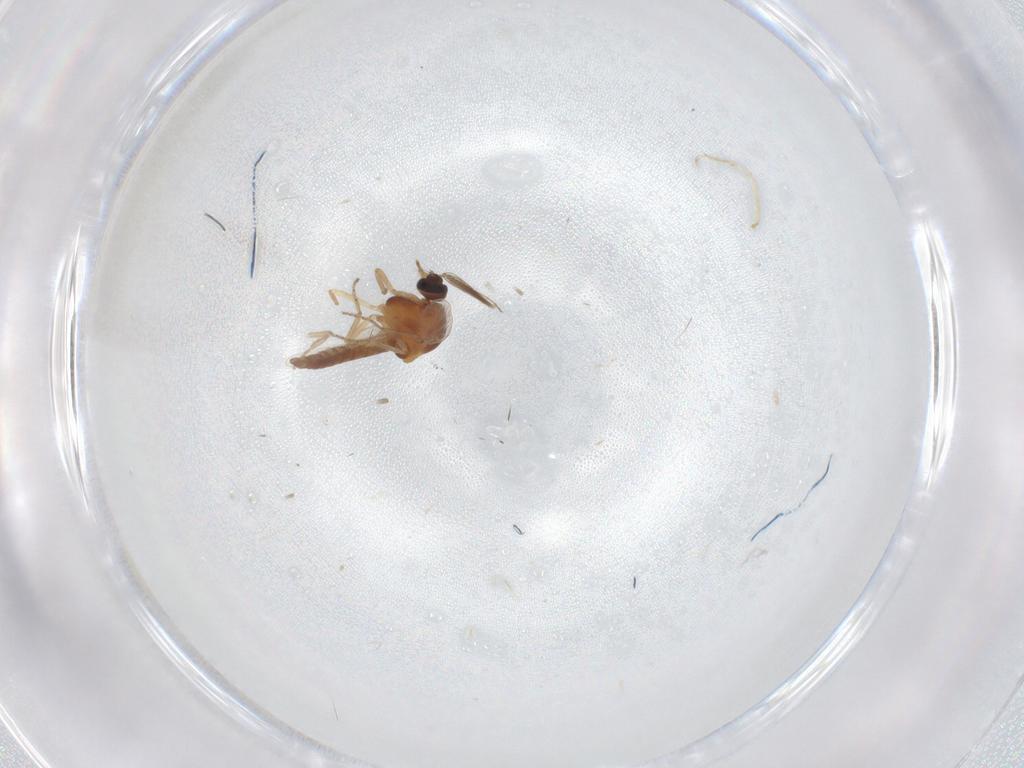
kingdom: Animalia
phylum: Arthropoda
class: Insecta
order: Diptera
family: Ceratopogonidae
